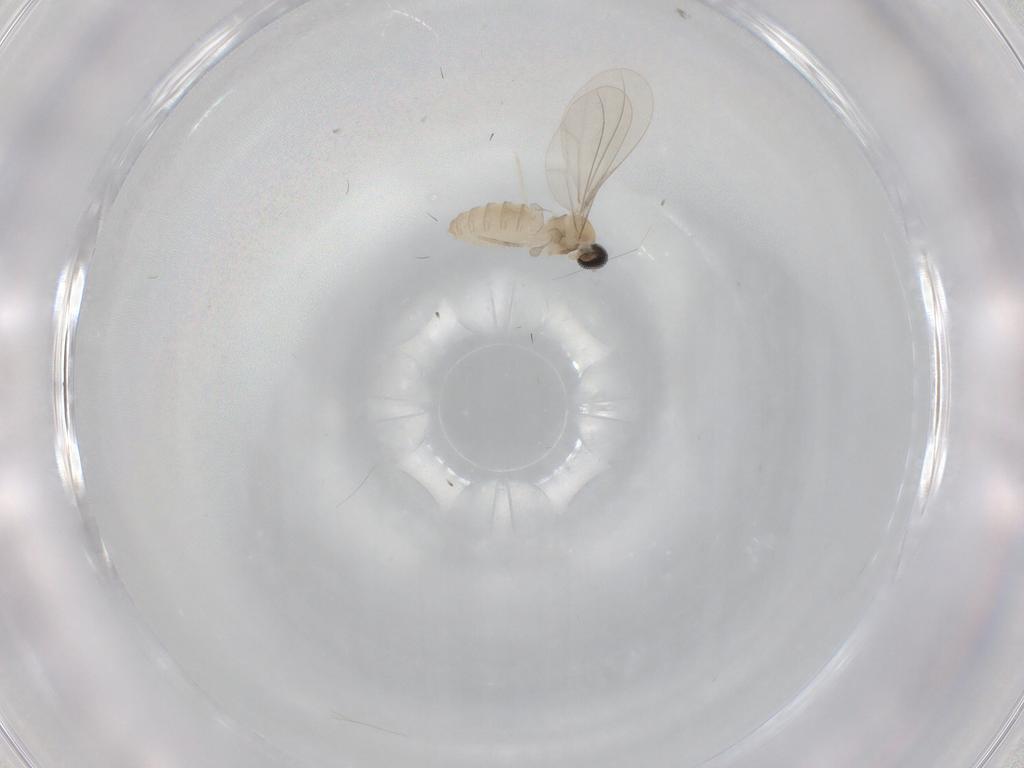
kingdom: Animalia
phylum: Arthropoda
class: Insecta
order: Diptera
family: Cecidomyiidae
